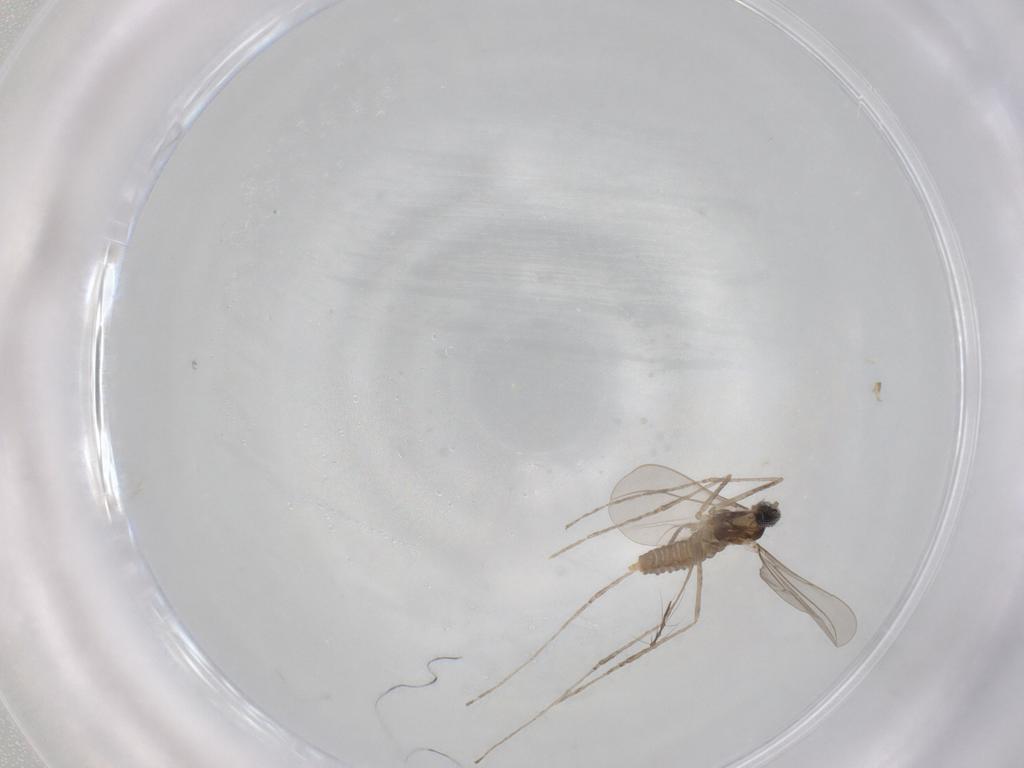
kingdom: Animalia
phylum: Arthropoda
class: Insecta
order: Diptera
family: Cecidomyiidae
